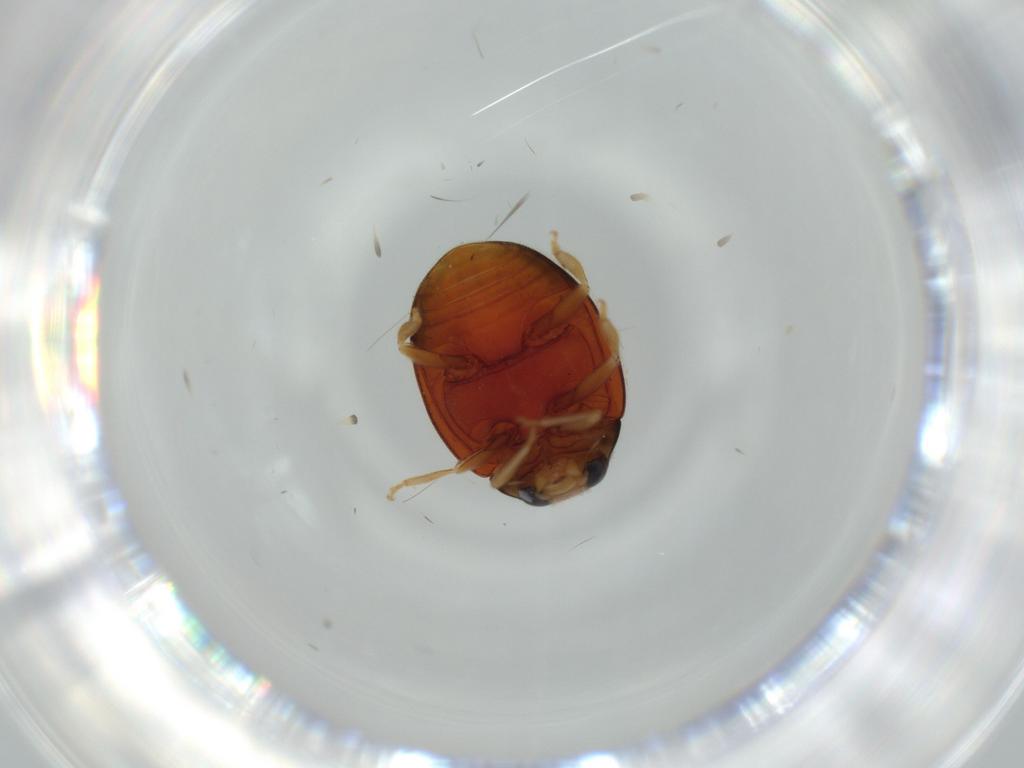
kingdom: Animalia
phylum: Arthropoda
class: Insecta
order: Coleoptera
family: Coccinellidae
